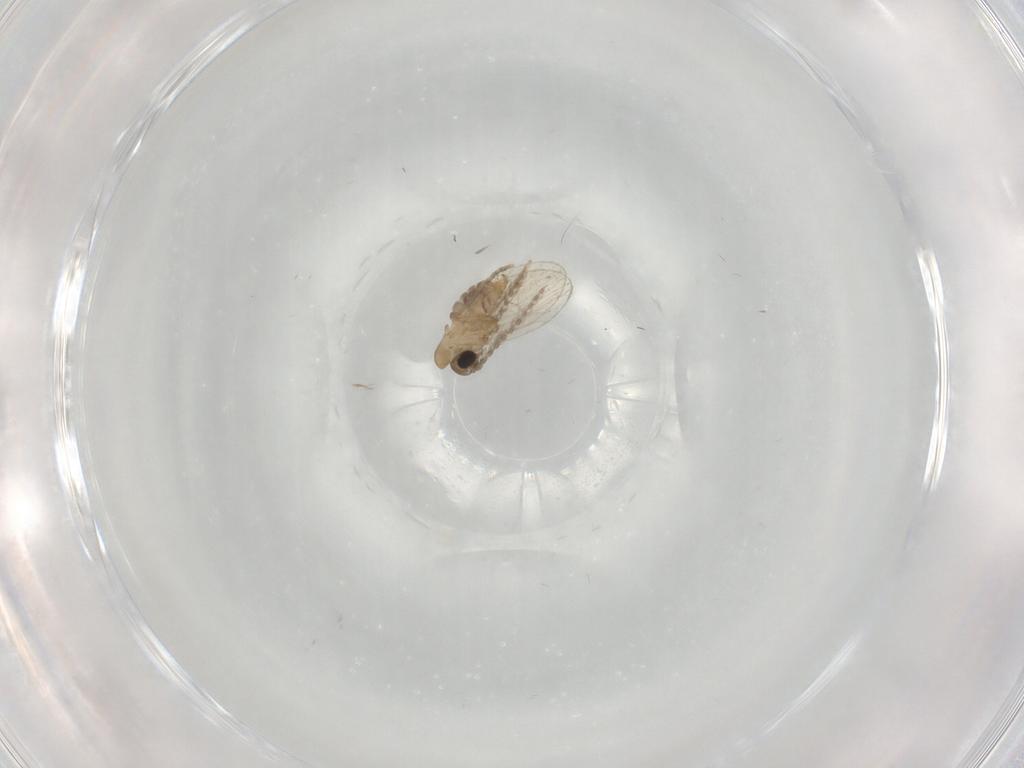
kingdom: Animalia
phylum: Arthropoda
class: Insecta
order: Diptera
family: Psychodidae
